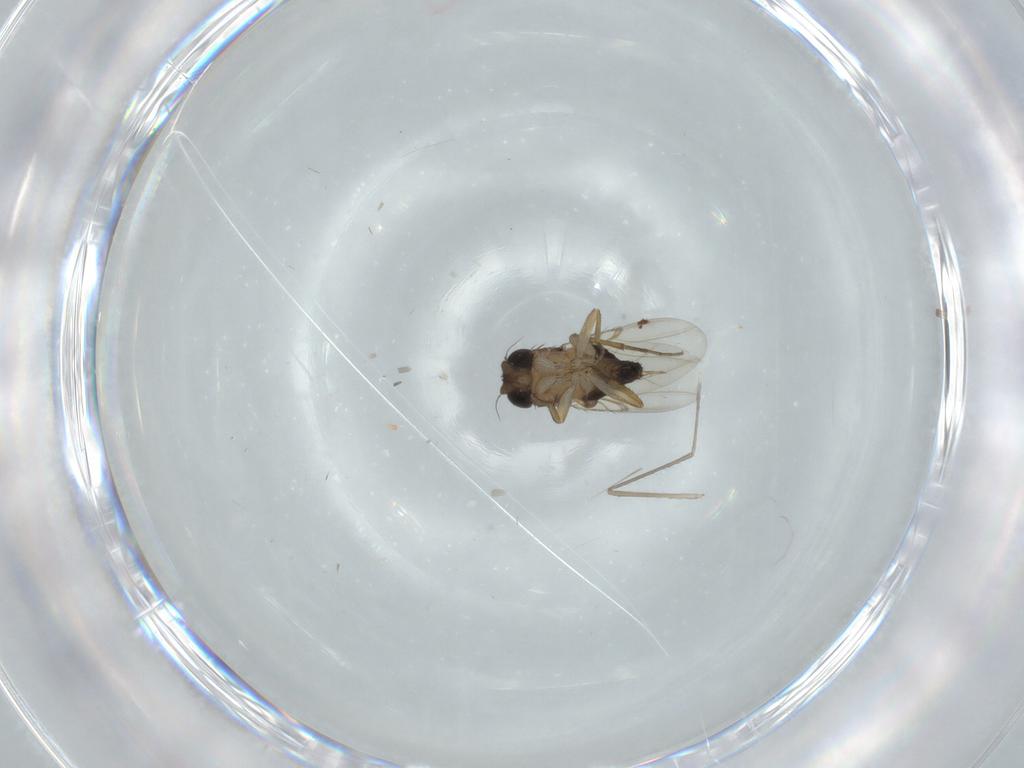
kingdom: Animalia
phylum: Arthropoda
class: Insecta
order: Diptera
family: Phoridae
